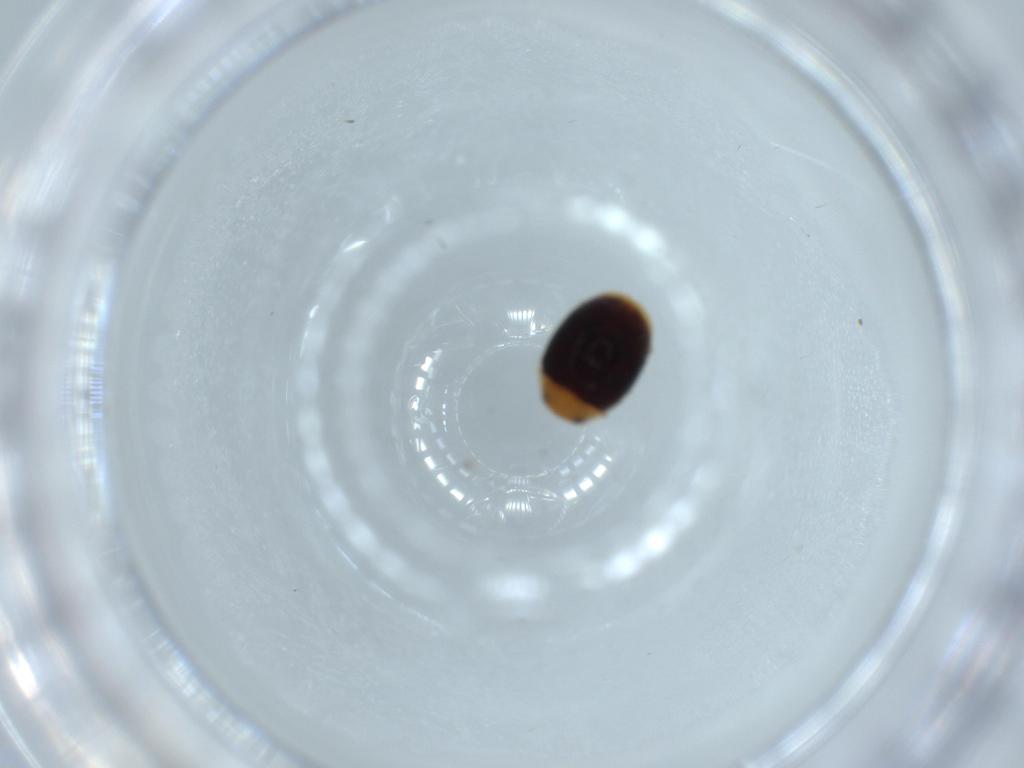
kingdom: Animalia
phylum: Arthropoda
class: Insecta
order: Coleoptera
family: Coccinellidae
